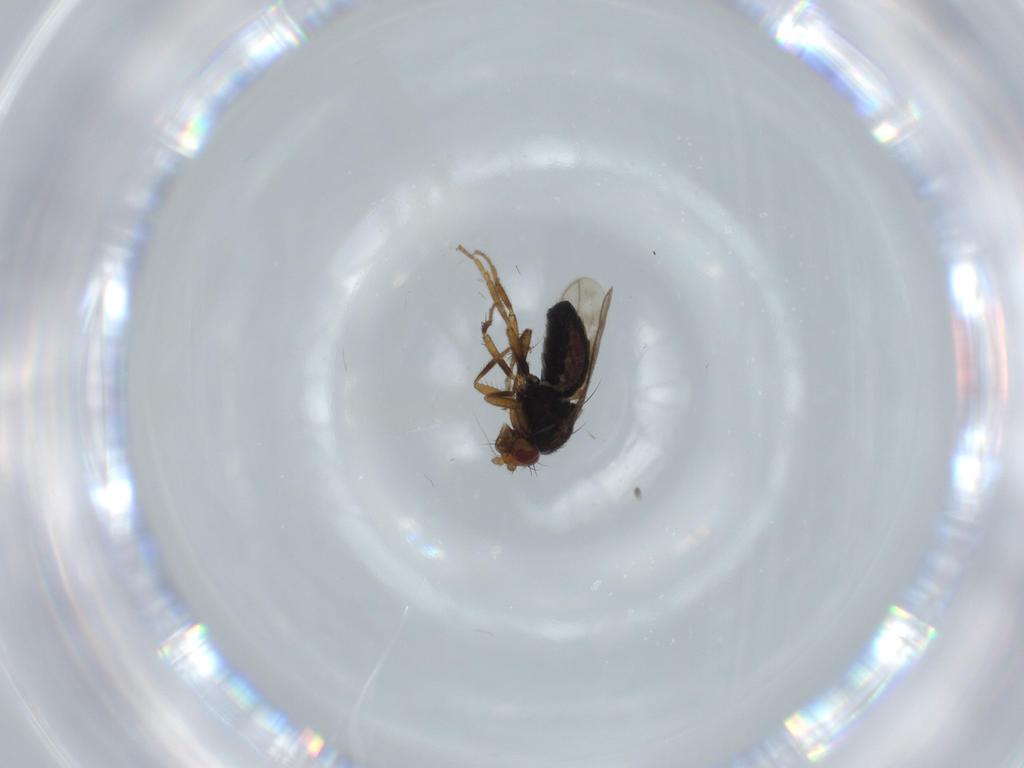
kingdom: Animalia
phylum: Arthropoda
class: Insecta
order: Diptera
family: Sphaeroceridae
